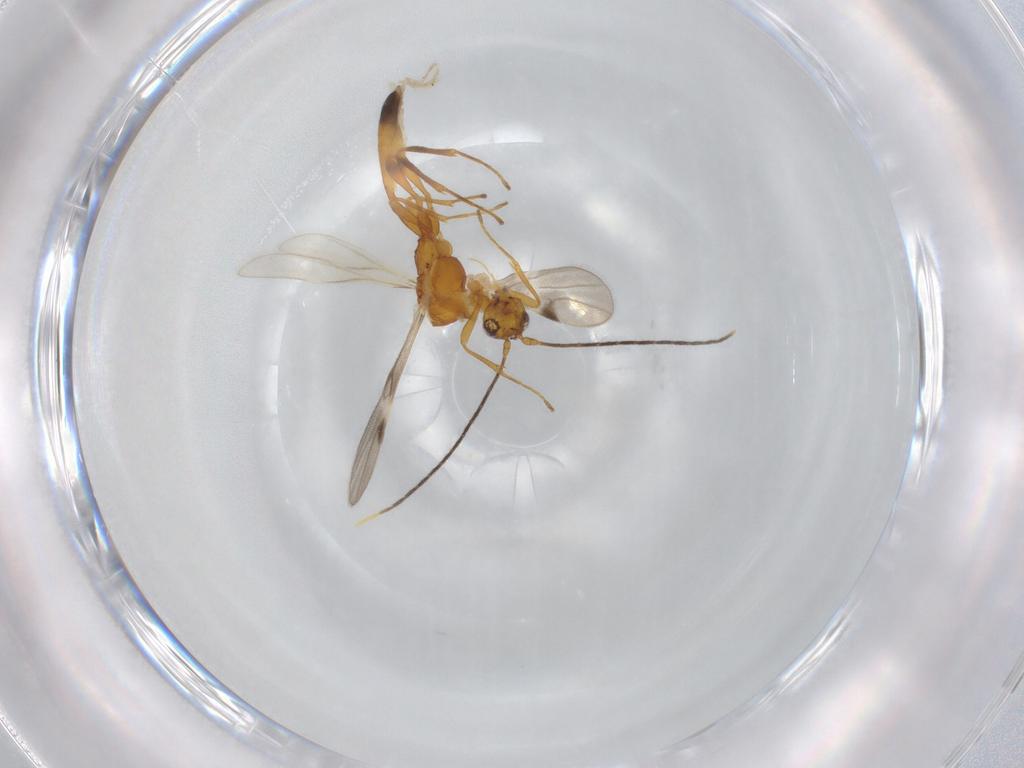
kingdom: Animalia
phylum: Arthropoda
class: Insecta
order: Hymenoptera
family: Braconidae
